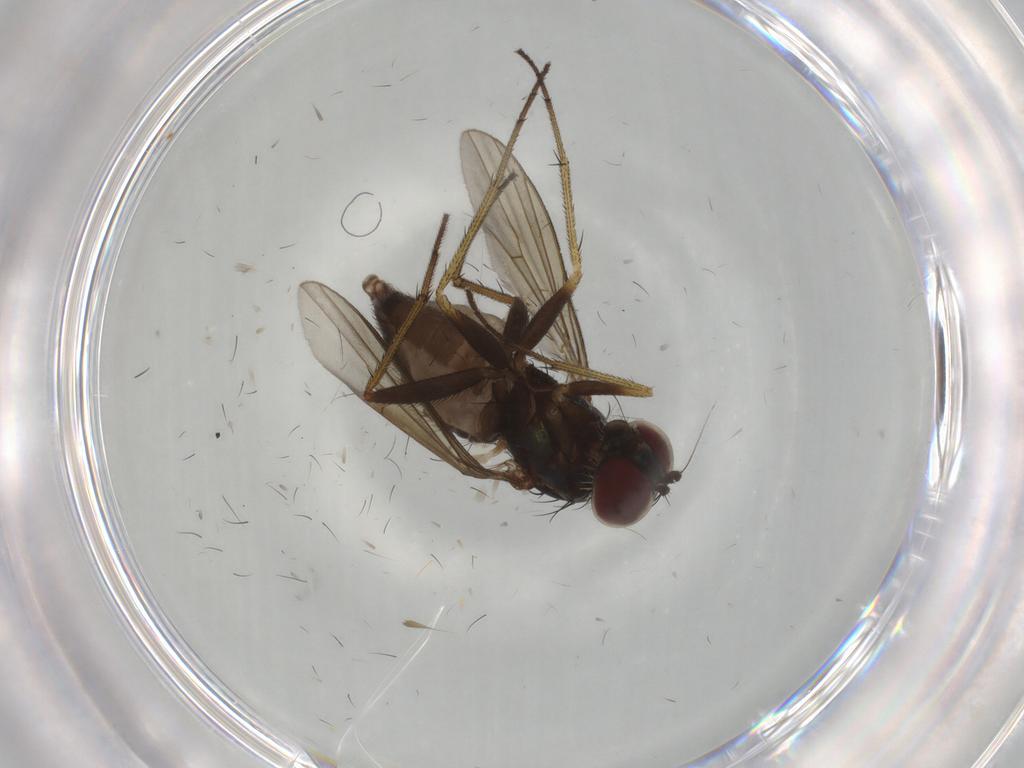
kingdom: Animalia
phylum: Arthropoda
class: Insecta
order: Diptera
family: Dolichopodidae
